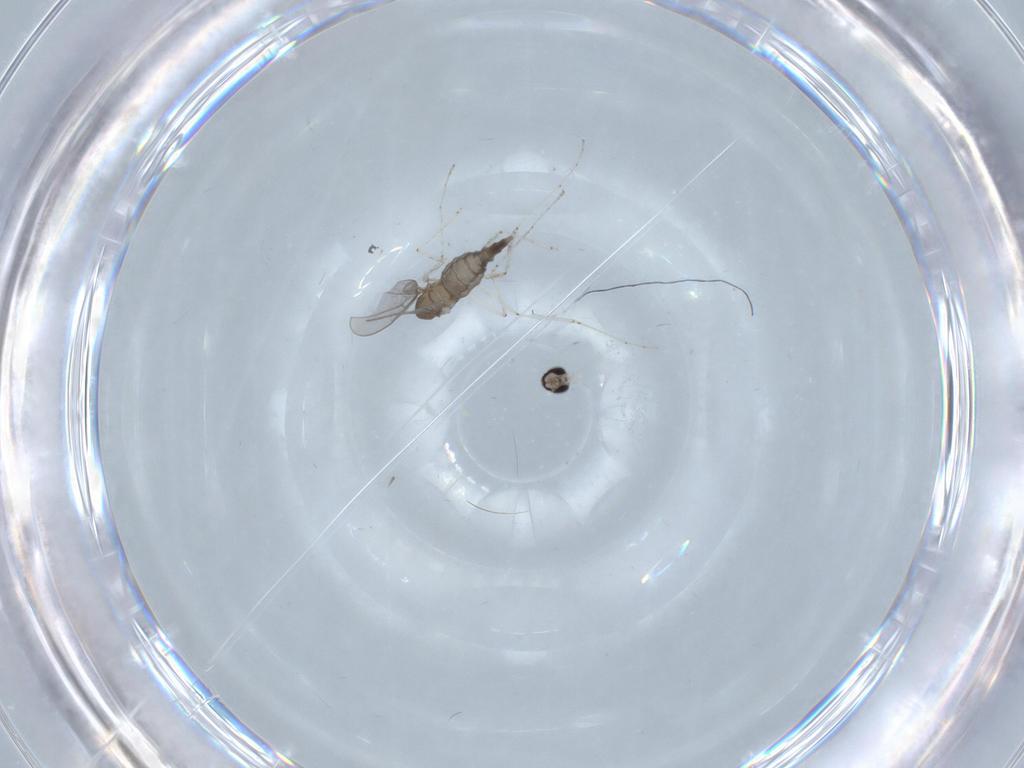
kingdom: Animalia
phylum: Arthropoda
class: Insecta
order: Diptera
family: Cecidomyiidae
